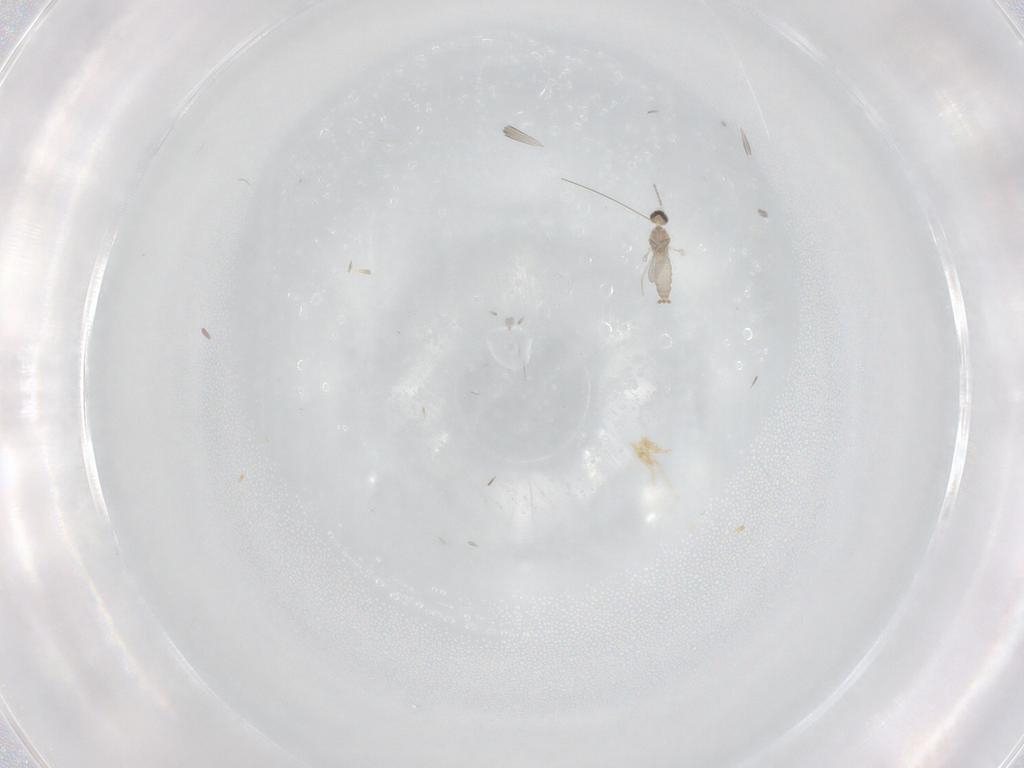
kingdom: Animalia
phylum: Arthropoda
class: Insecta
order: Diptera
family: Cecidomyiidae
